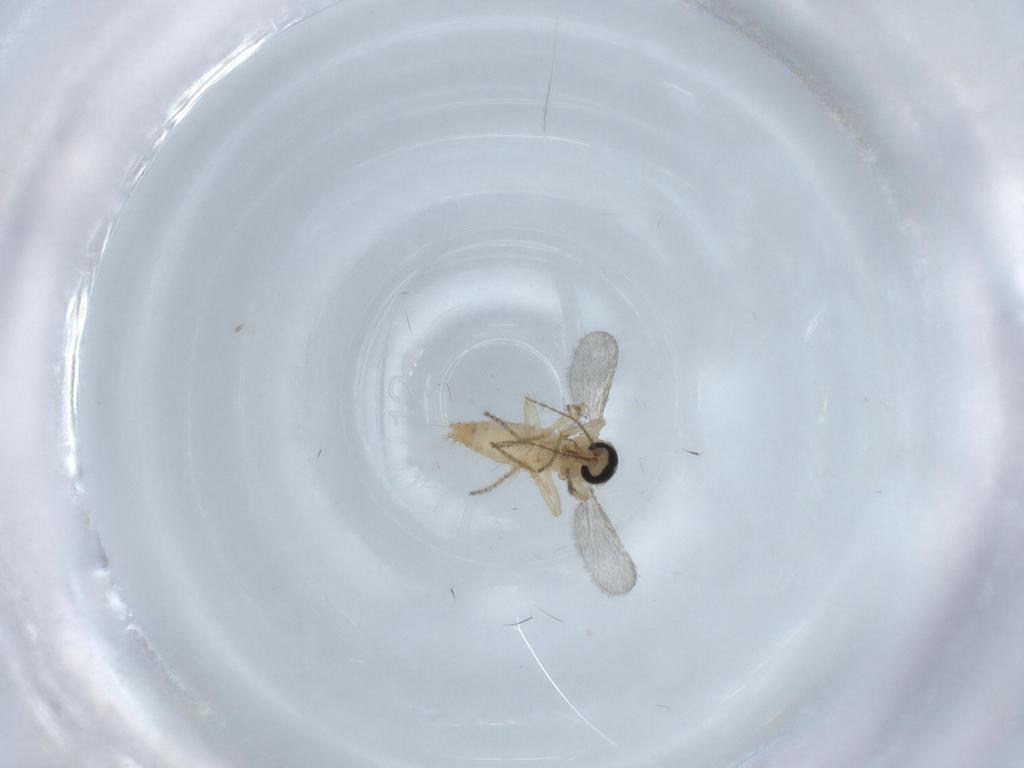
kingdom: Animalia
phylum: Arthropoda
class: Insecta
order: Diptera
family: Ceratopogonidae
